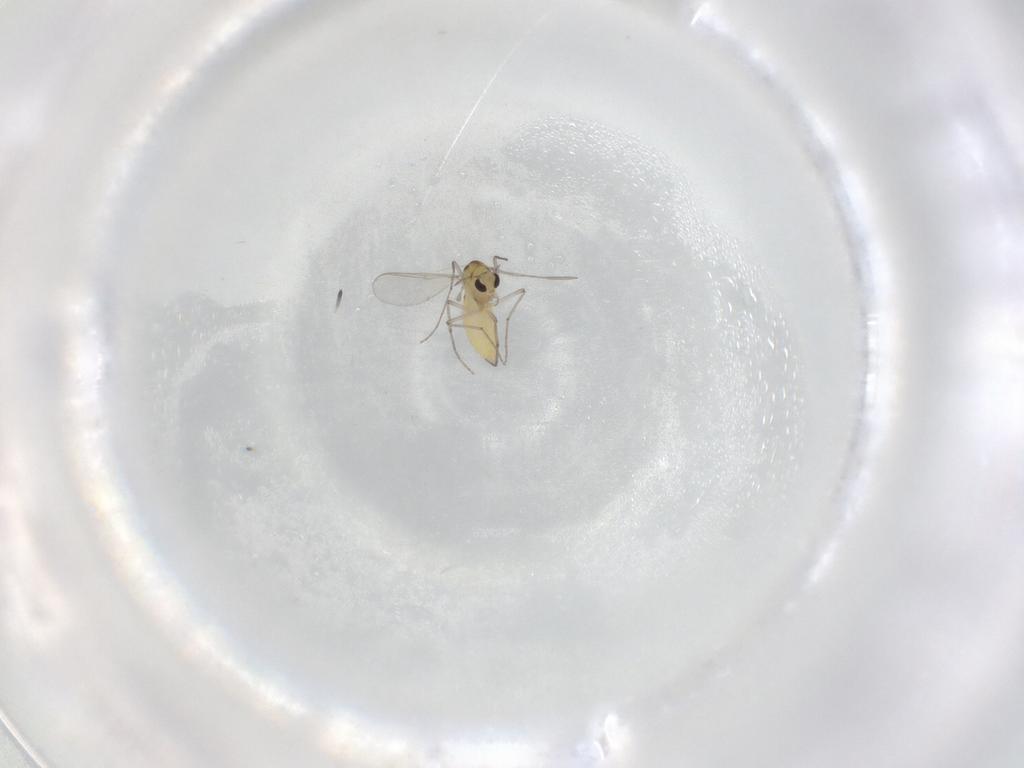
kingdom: Animalia
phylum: Arthropoda
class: Insecta
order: Diptera
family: Chironomidae
